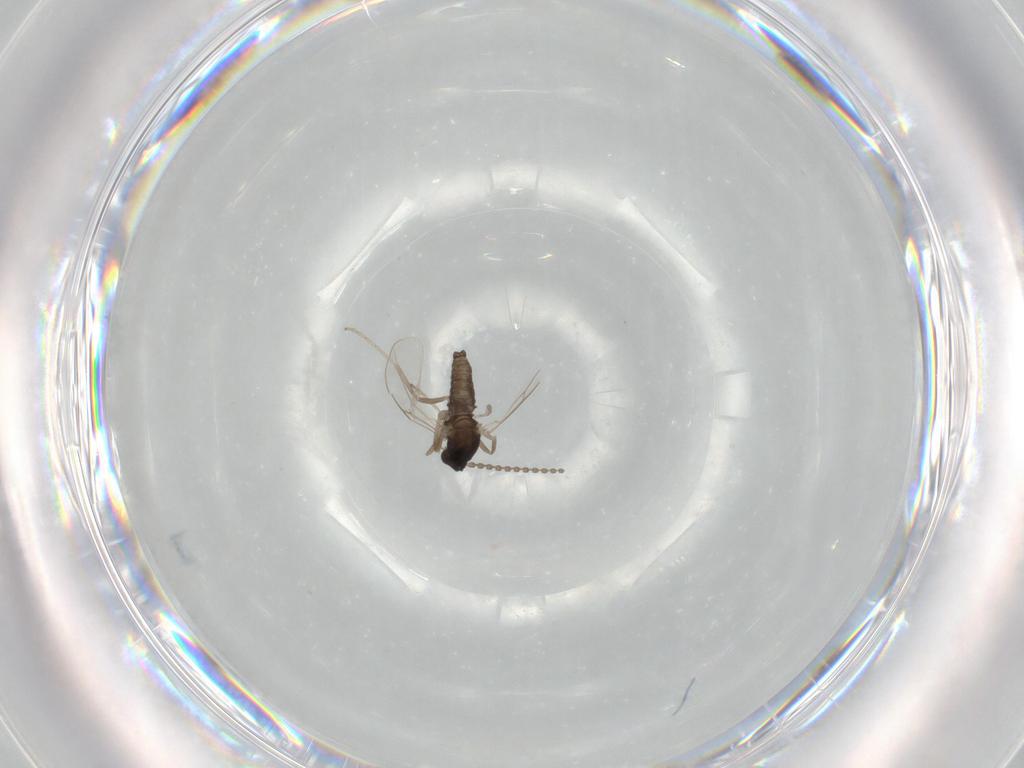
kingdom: Animalia
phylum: Arthropoda
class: Insecta
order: Diptera
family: Cecidomyiidae
